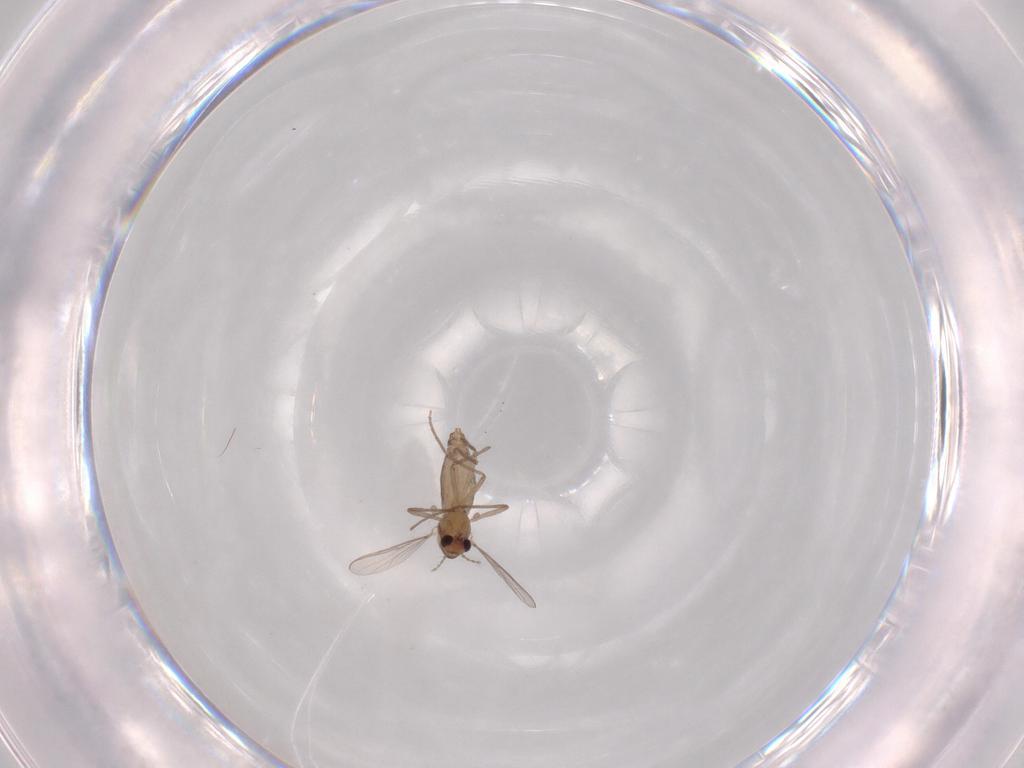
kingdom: Animalia
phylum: Arthropoda
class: Insecta
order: Diptera
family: Chironomidae
